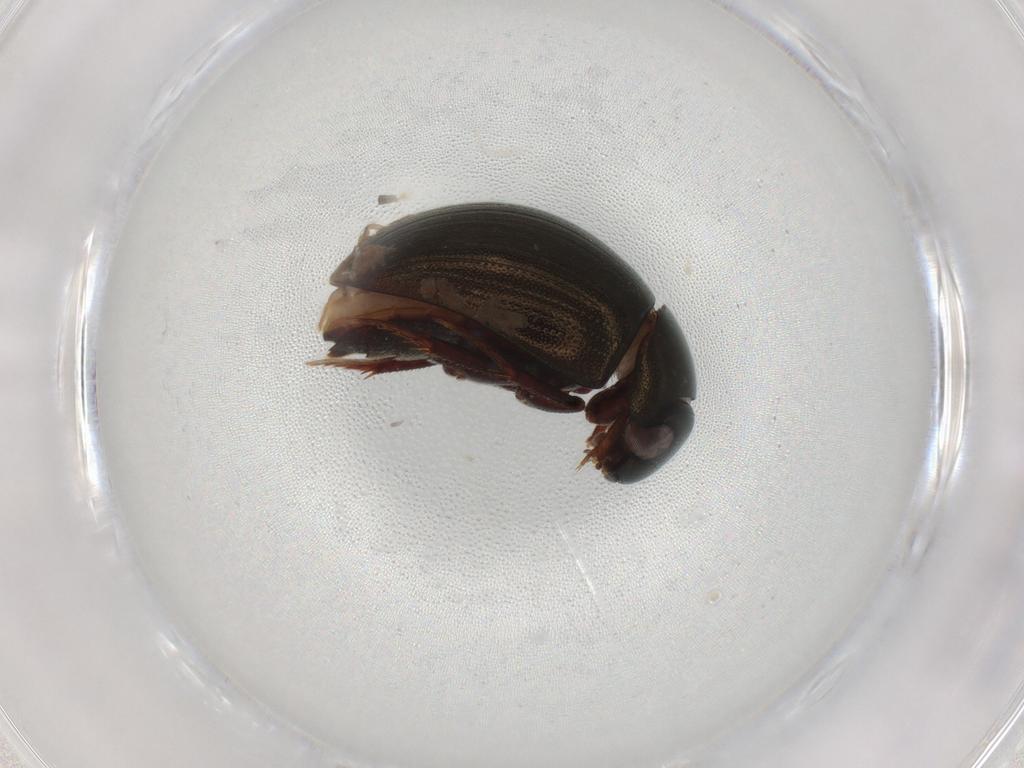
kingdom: Animalia
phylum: Arthropoda
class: Insecta
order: Coleoptera
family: Hydrophilidae
